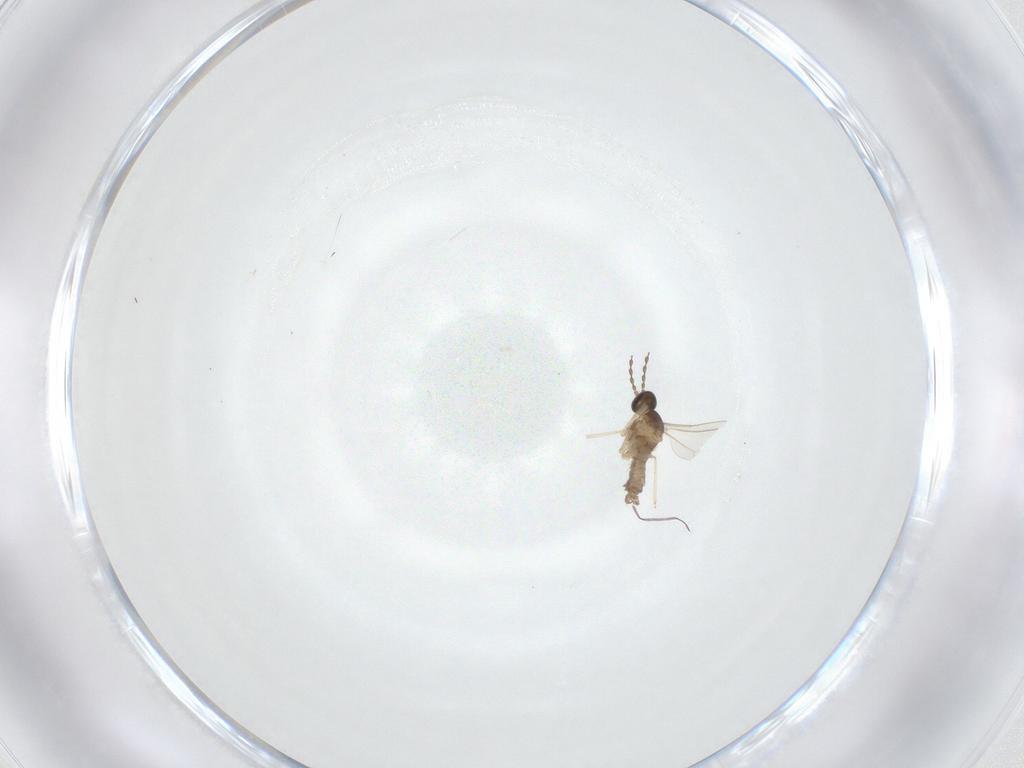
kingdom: Animalia
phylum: Arthropoda
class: Insecta
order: Diptera
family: Cecidomyiidae
